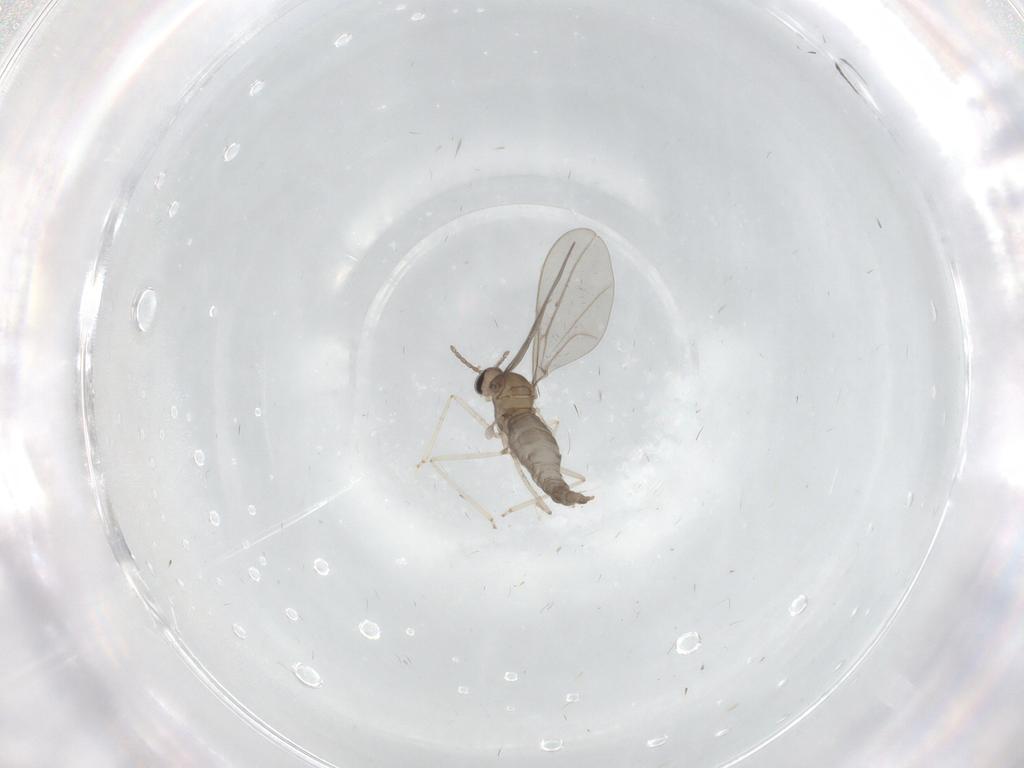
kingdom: Animalia
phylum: Arthropoda
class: Insecta
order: Diptera
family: Cecidomyiidae
